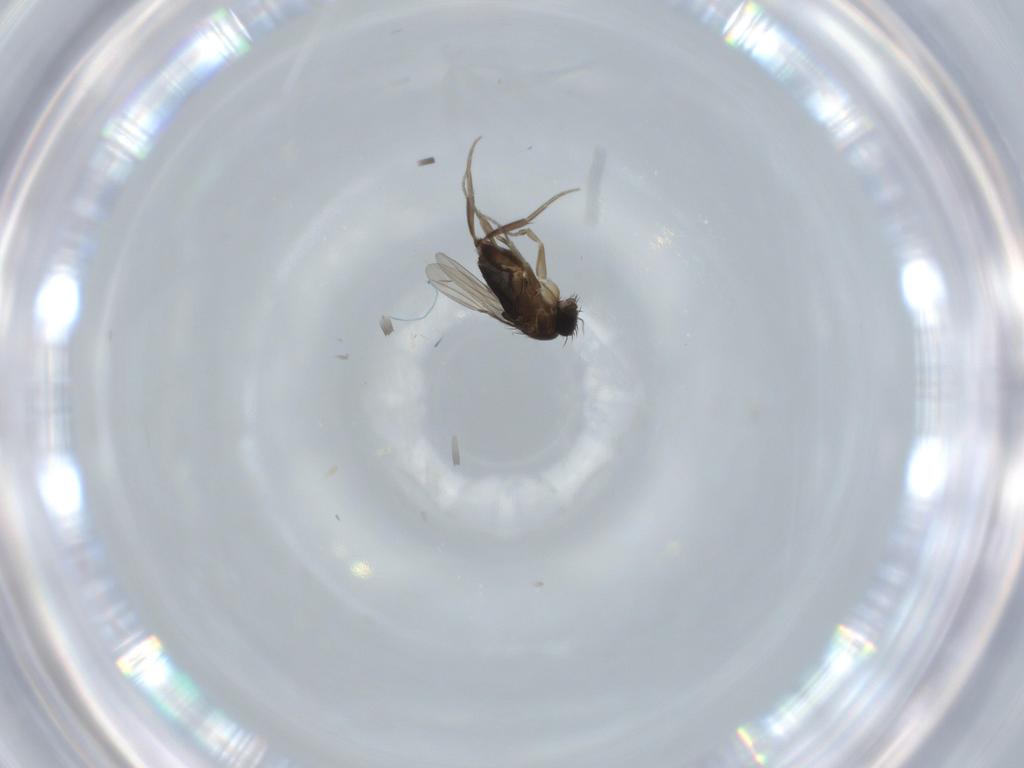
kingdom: Animalia
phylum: Arthropoda
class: Insecta
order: Diptera
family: Phoridae
